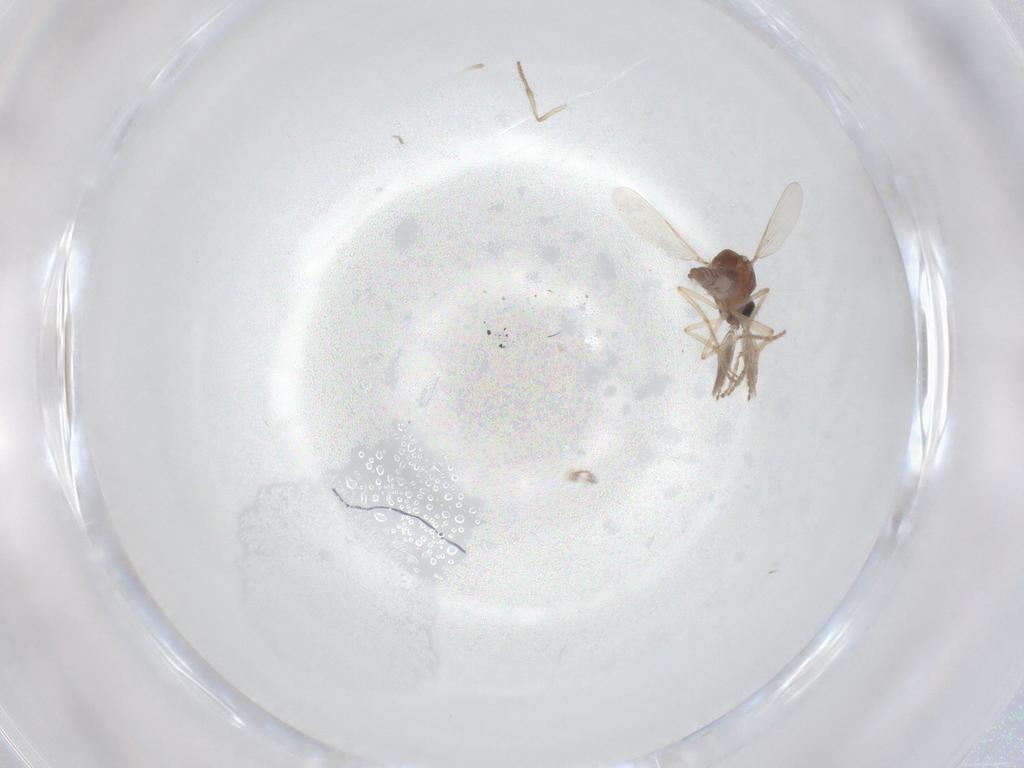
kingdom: Animalia
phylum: Arthropoda
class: Insecta
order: Diptera
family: Ceratopogonidae
